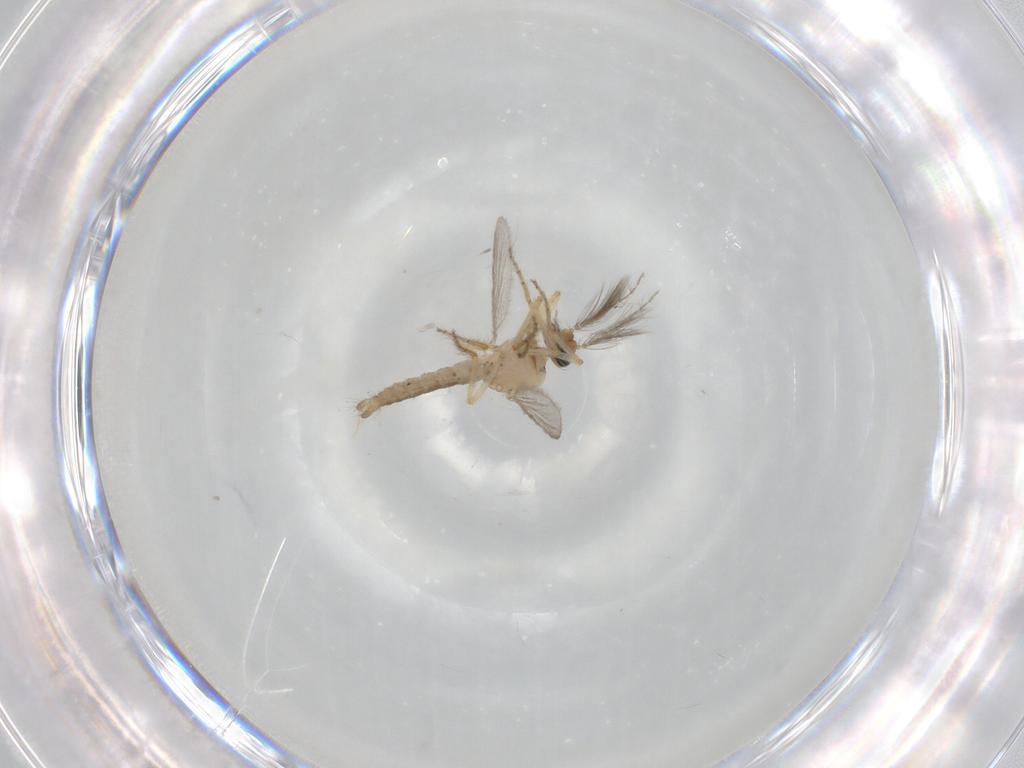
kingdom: Animalia
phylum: Arthropoda
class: Insecta
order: Diptera
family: Ceratopogonidae
